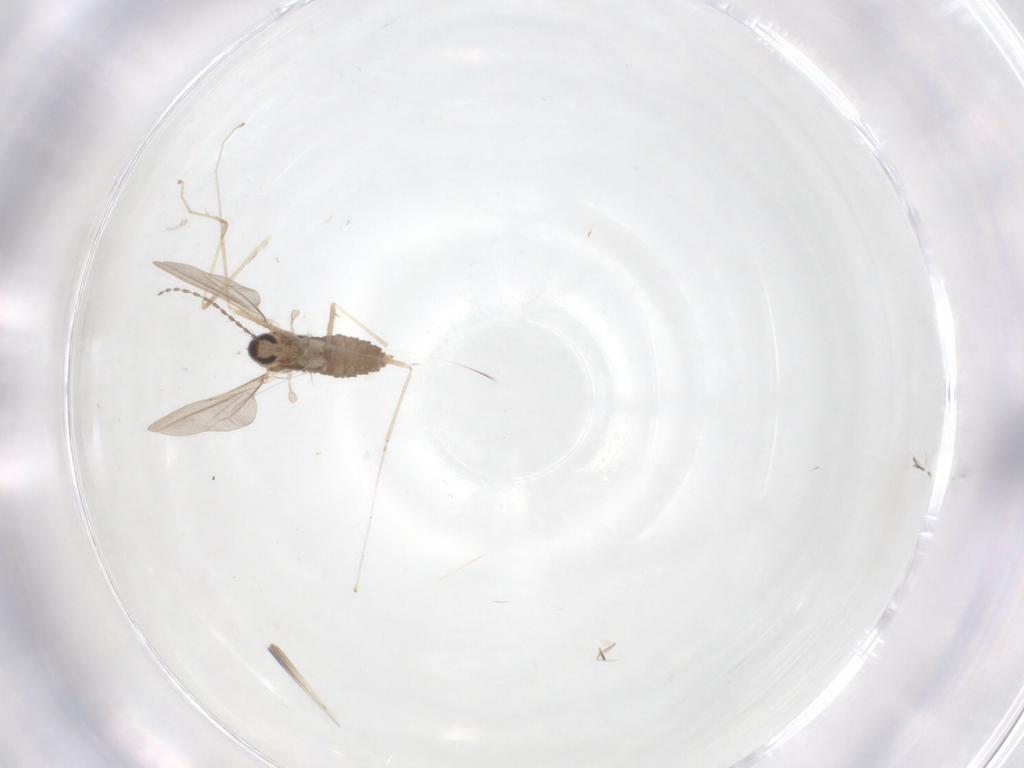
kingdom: Animalia
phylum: Arthropoda
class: Insecta
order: Diptera
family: Cecidomyiidae
